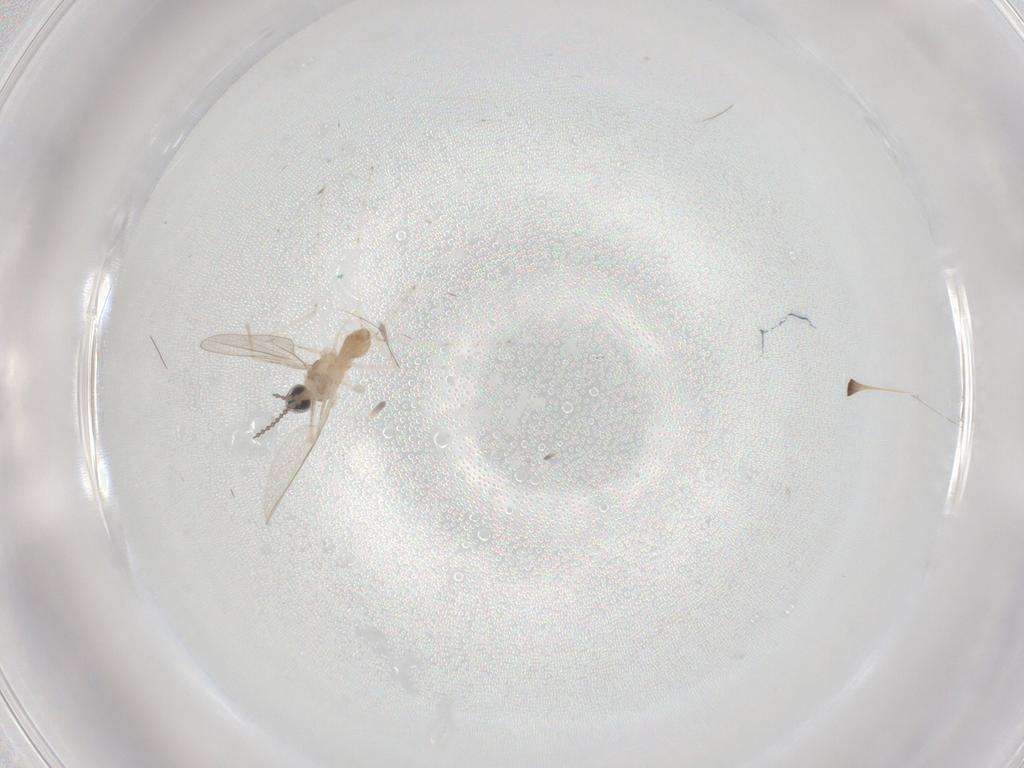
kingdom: Animalia
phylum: Arthropoda
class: Insecta
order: Diptera
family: Cecidomyiidae
